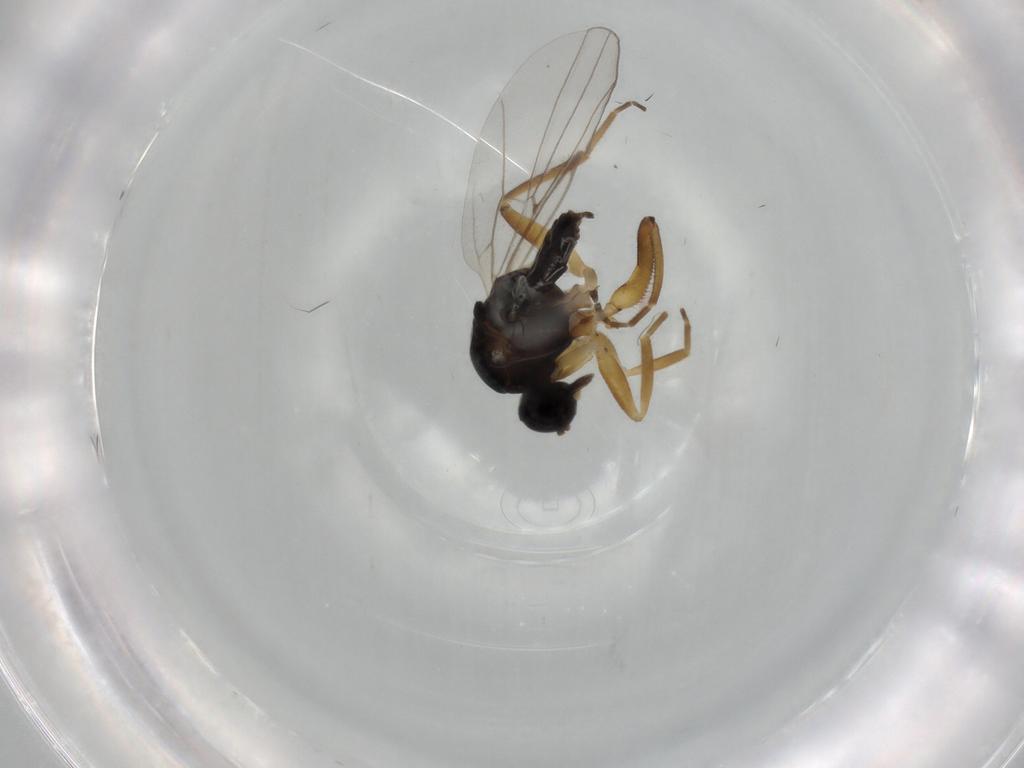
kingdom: Animalia
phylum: Arthropoda
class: Insecta
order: Diptera
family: Hybotidae
